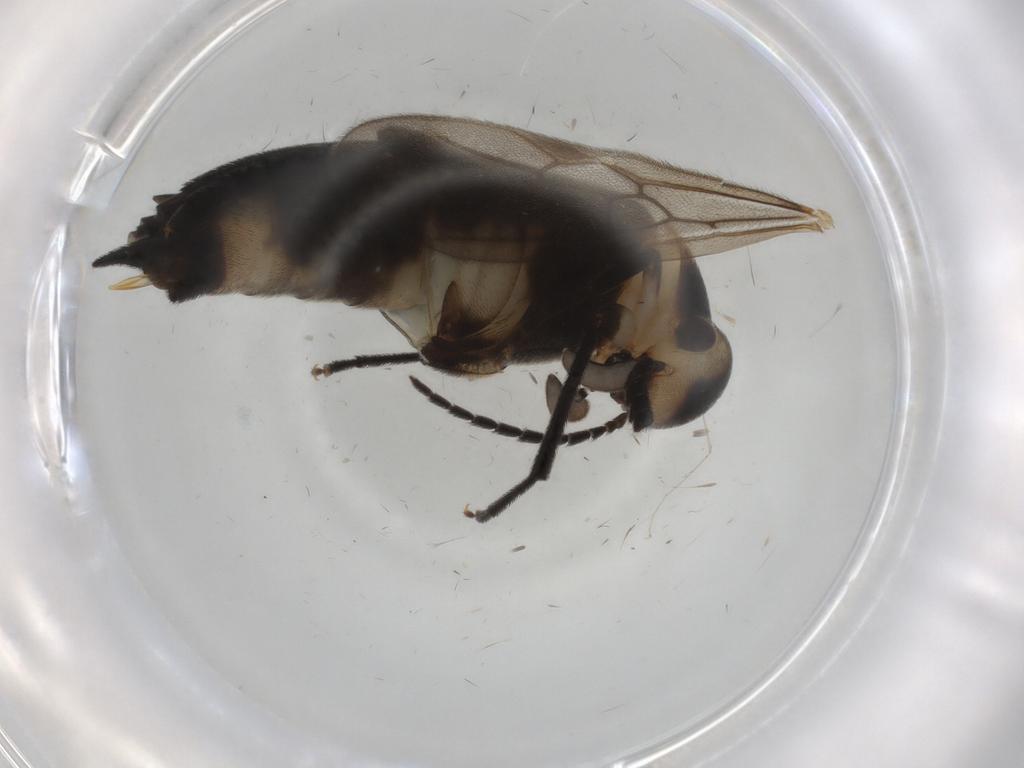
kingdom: Animalia
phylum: Arthropoda
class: Insecta
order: Coleoptera
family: Mordellidae
